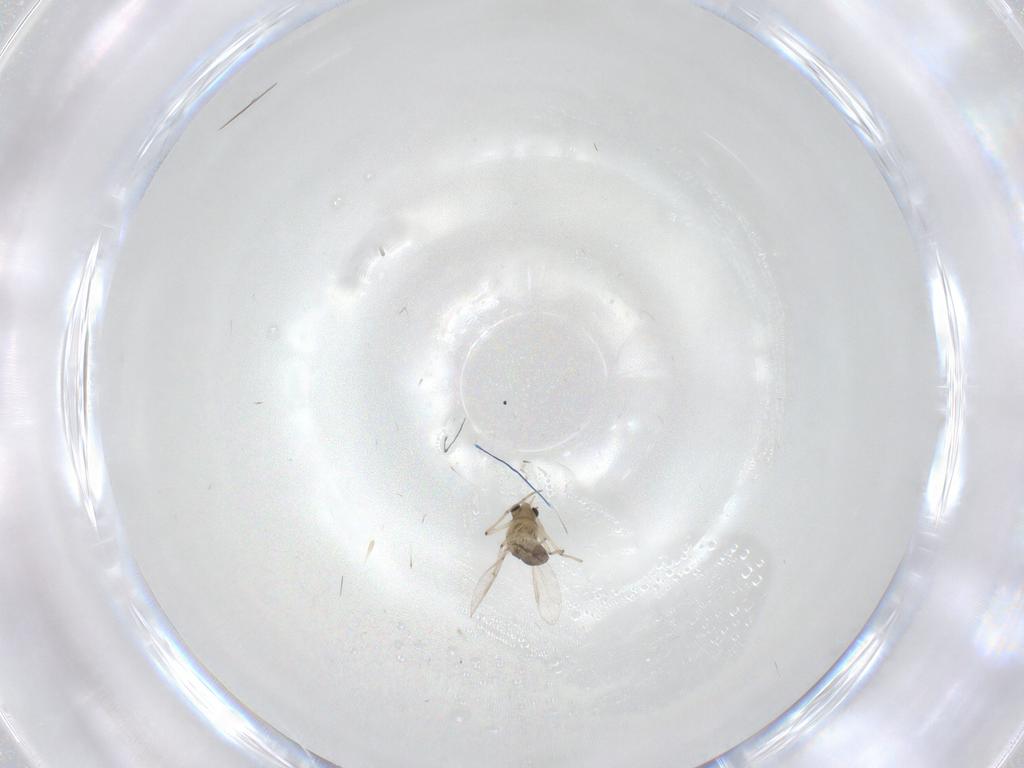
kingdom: Animalia
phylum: Arthropoda
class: Insecta
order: Diptera
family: Chironomidae
